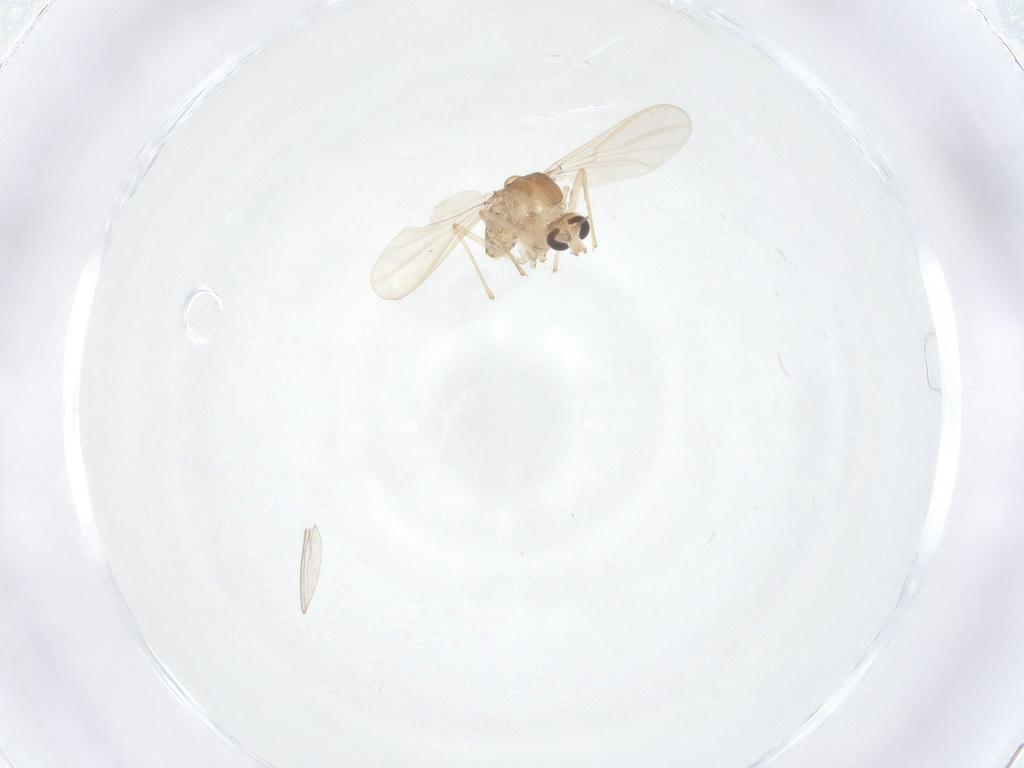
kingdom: Animalia
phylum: Arthropoda
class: Insecta
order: Diptera
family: Chironomidae
